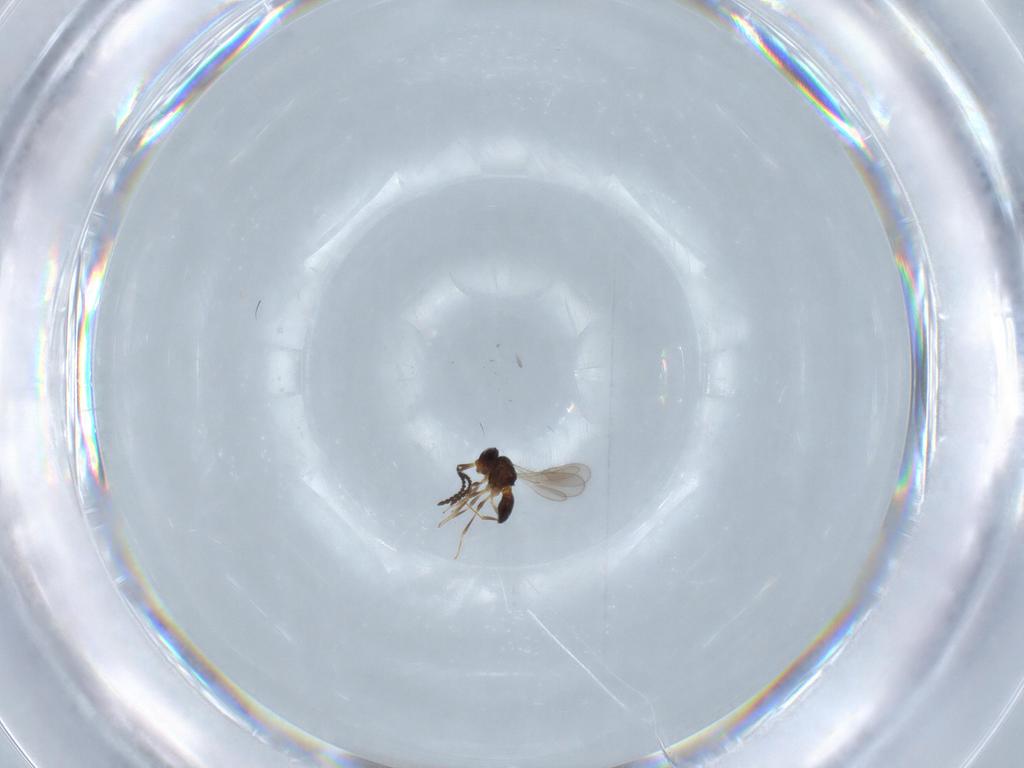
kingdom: Animalia
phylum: Arthropoda
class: Insecta
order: Hymenoptera
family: Scelionidae
